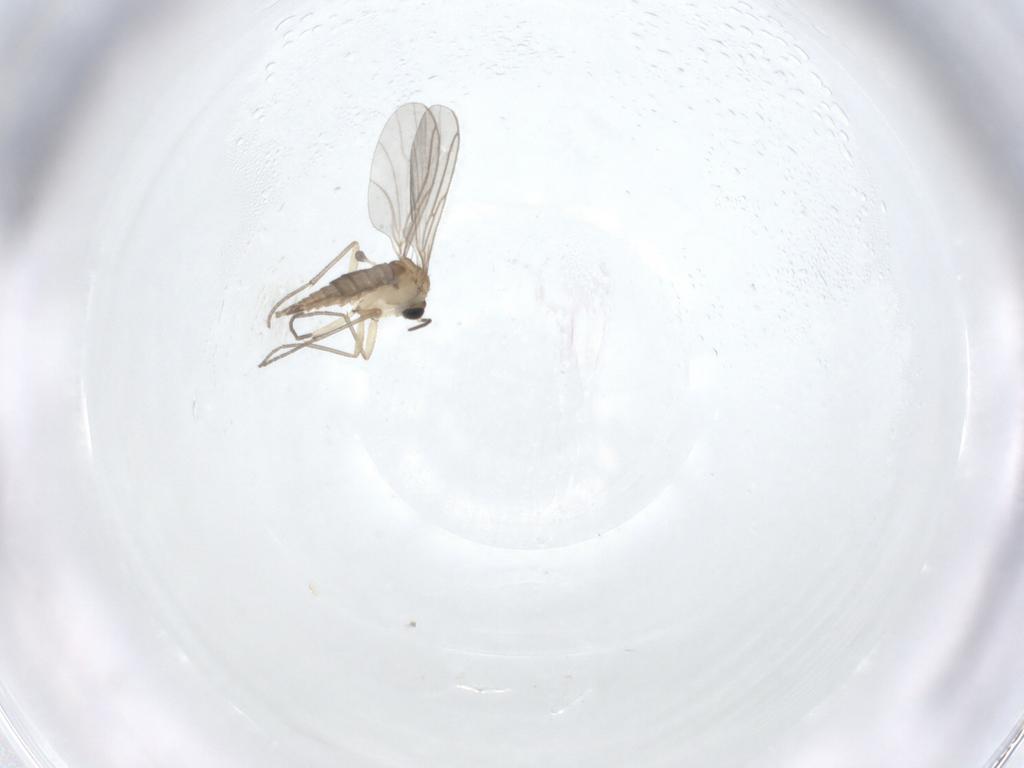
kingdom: Animalia
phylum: Arthropoda
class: Insecta
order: Diptera
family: Sciaridae
